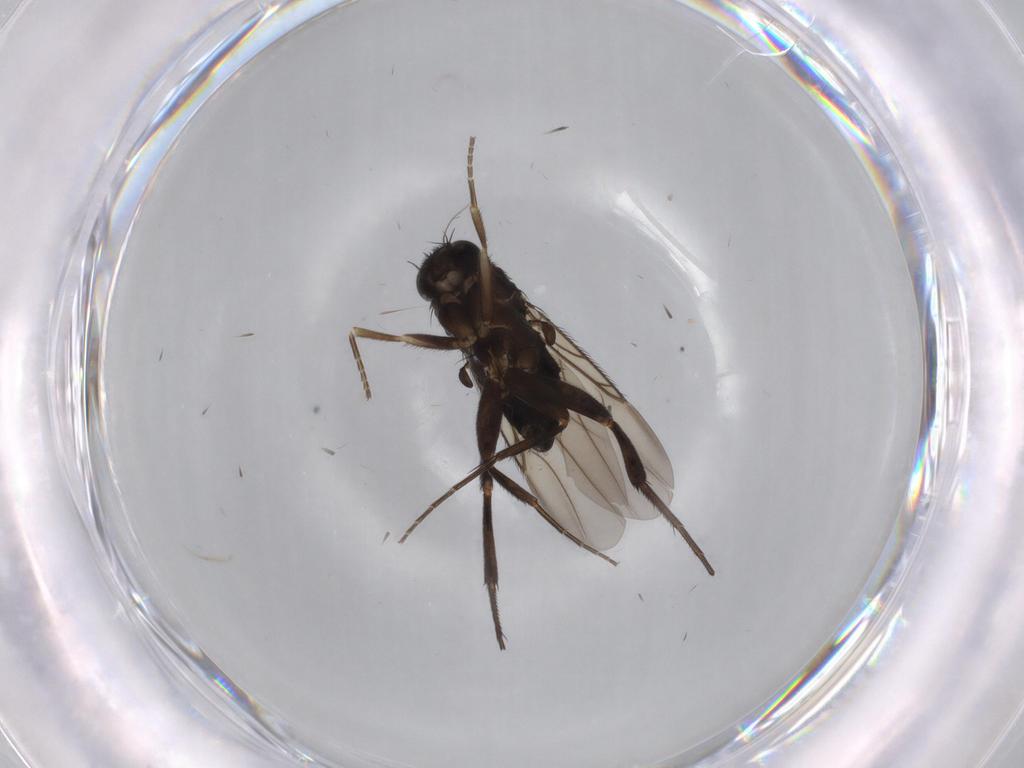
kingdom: Animalia
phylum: Arthropoda
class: Insecta
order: Diptera
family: Phoridae
